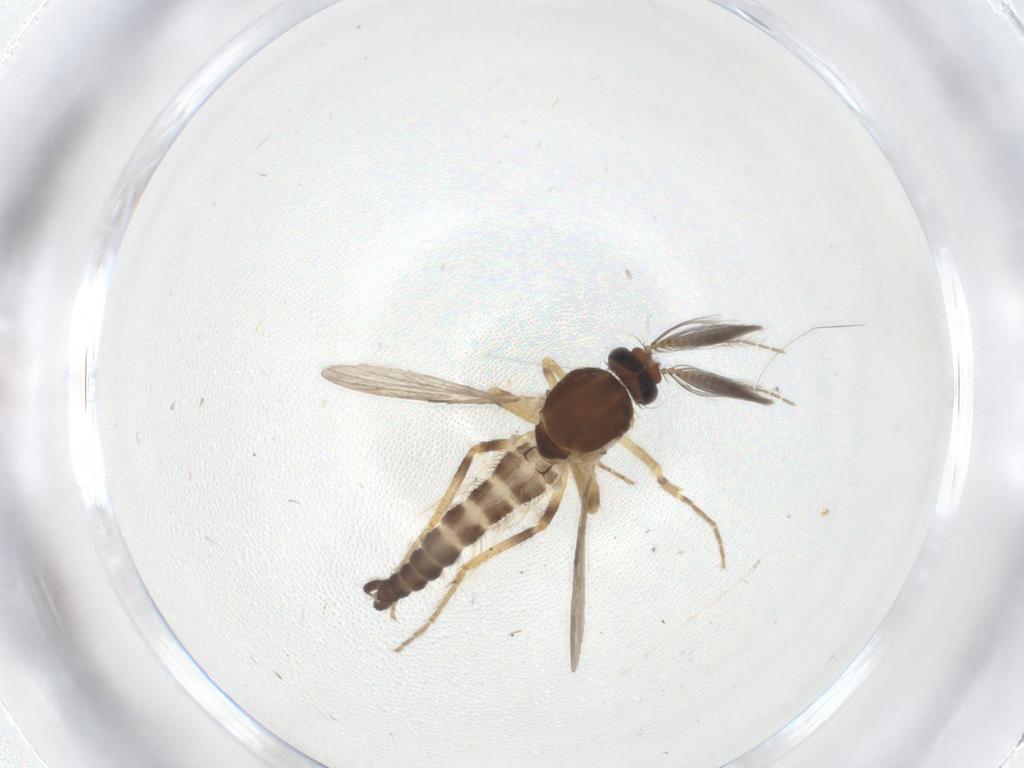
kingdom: Animalia
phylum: Arthropoda
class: Insecta
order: Diptera
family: Ceratopogonidae
